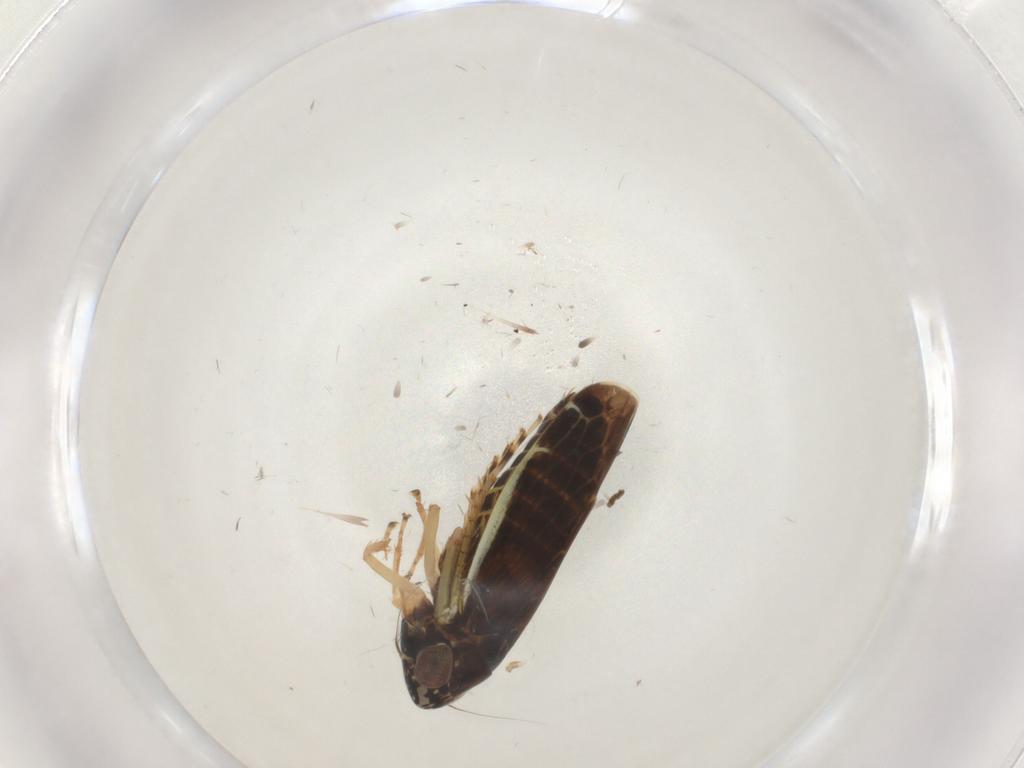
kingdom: Animalia
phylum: Arthropoda
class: Insecta
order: Hemiptera
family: Cicadellidae
